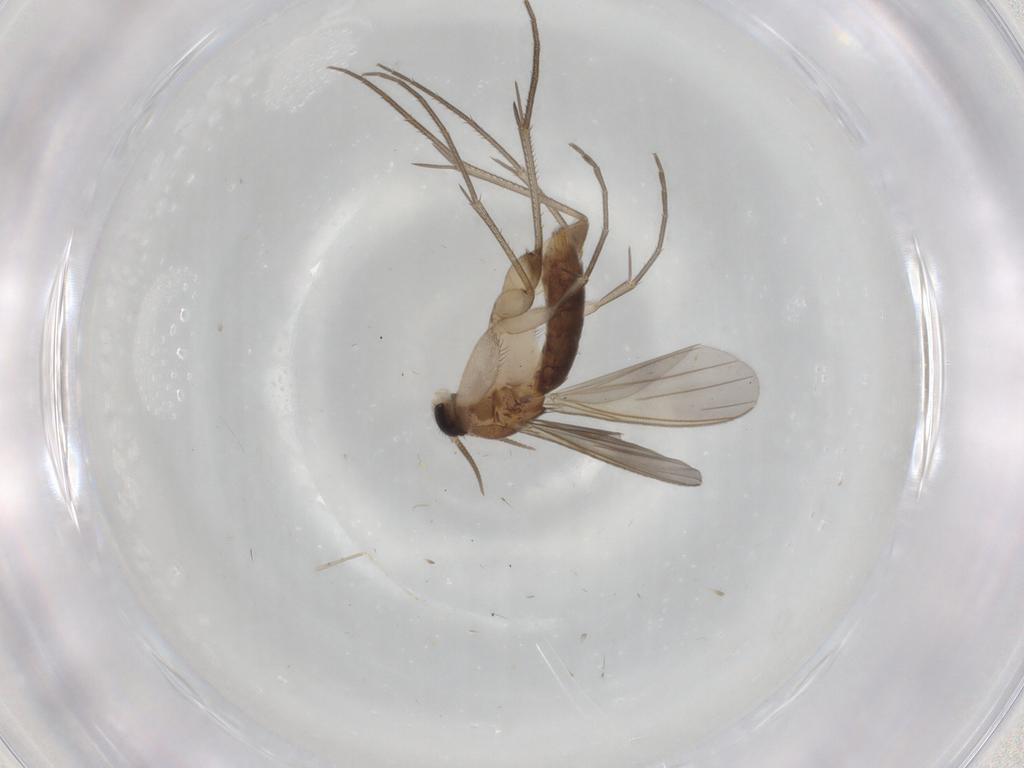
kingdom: Animalia
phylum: Arthropoda
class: Insecta
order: Diptera
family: Mycetophilidae
